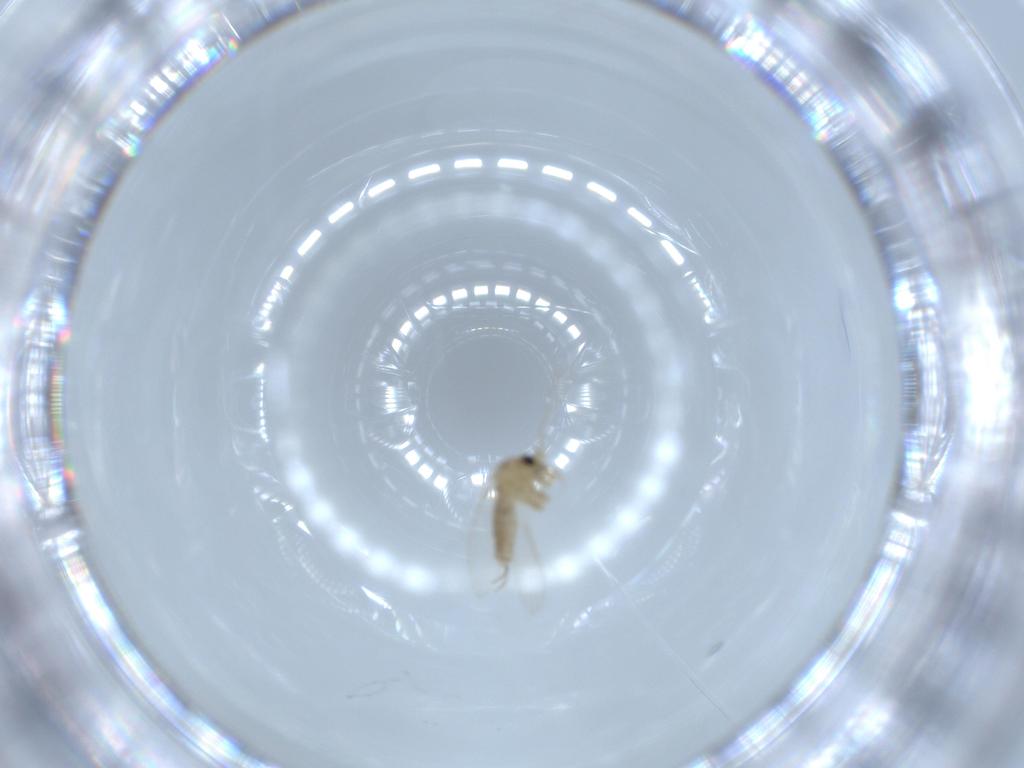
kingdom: Animalia
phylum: Arthropoda
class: Insecta
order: Diptera
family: Psychodidae
